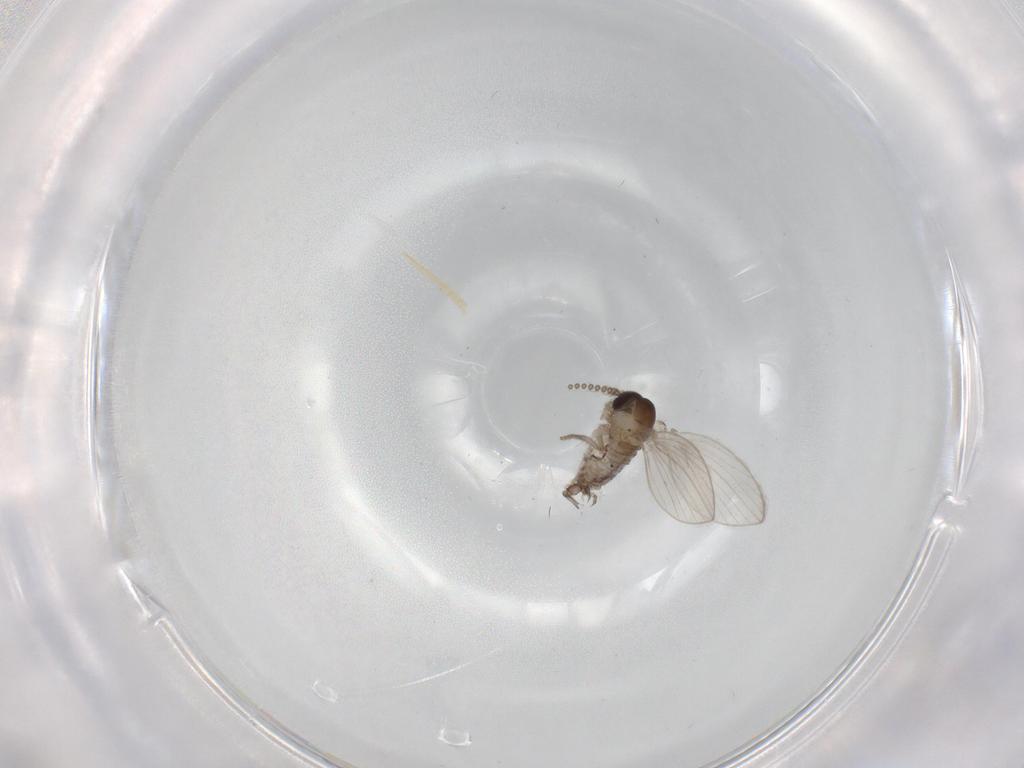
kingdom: Animalia
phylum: Arthropoda
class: Insecta
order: Diptera
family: Psychodidae
